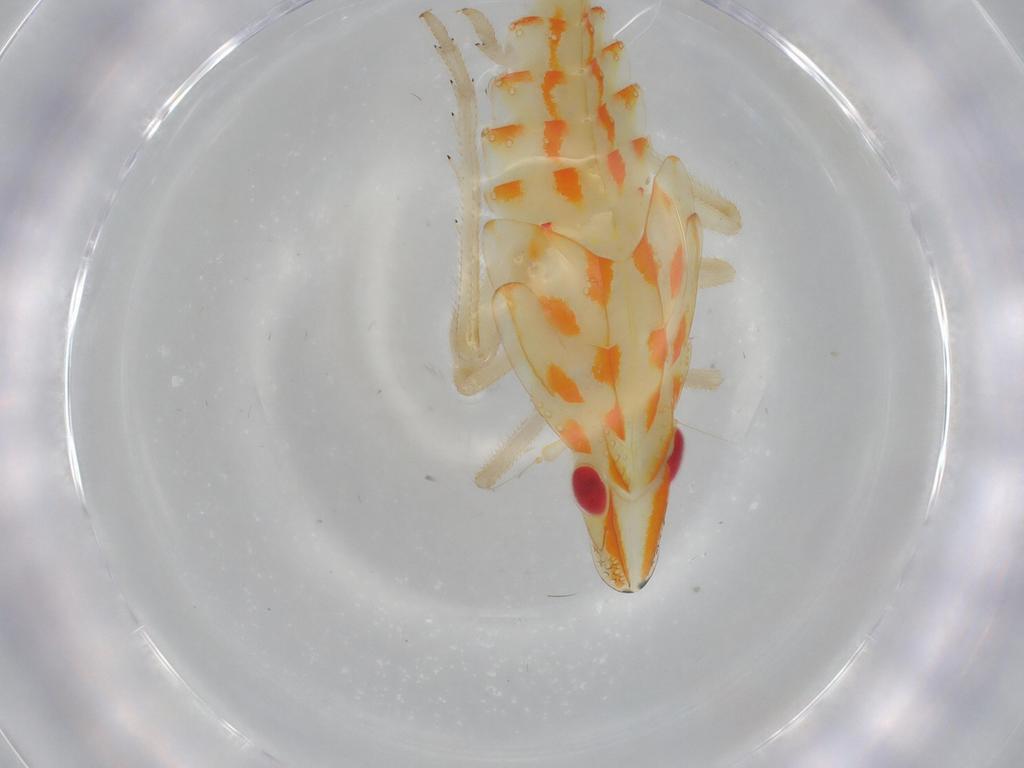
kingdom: Animalia
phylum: Arthropoda
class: Insecta
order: Hemiptera
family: Tropiduchidae
